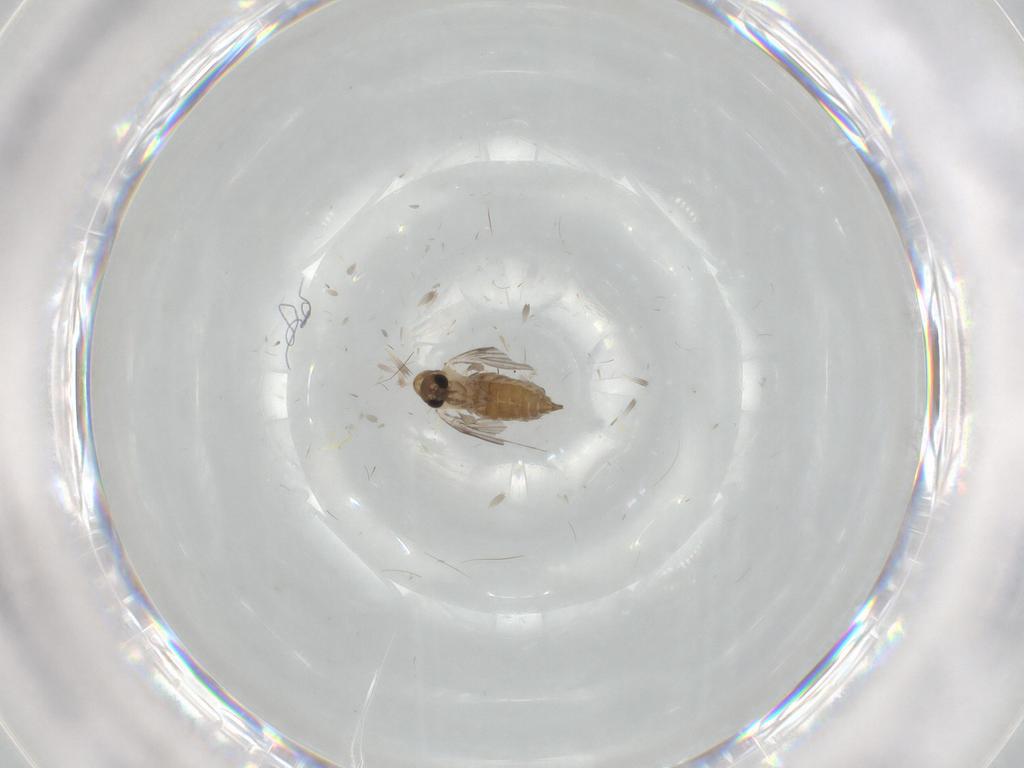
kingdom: Animalia
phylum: Arthropoda
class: Insecta
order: Diptera
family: Tabanidae
